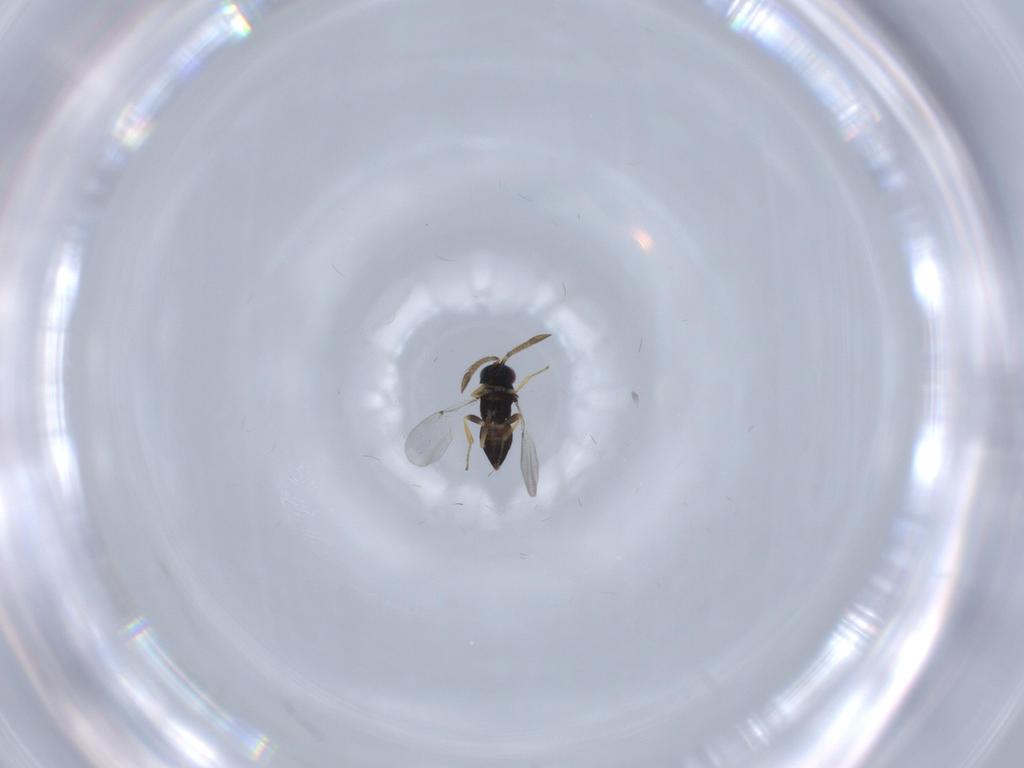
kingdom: Animalia
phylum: Arthropoda
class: Insecta
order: Hymenoptera
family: Encyrtidae
